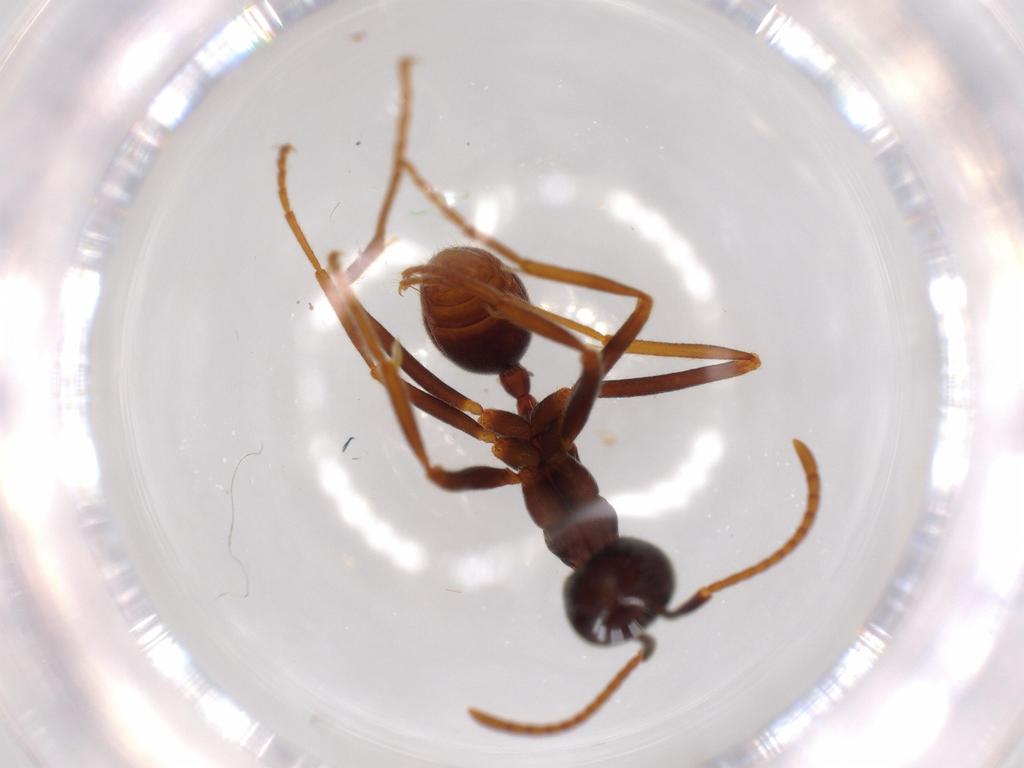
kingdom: Animalia
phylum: Arthropoda
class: Insecta
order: Hymenoptera
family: Formicidae
